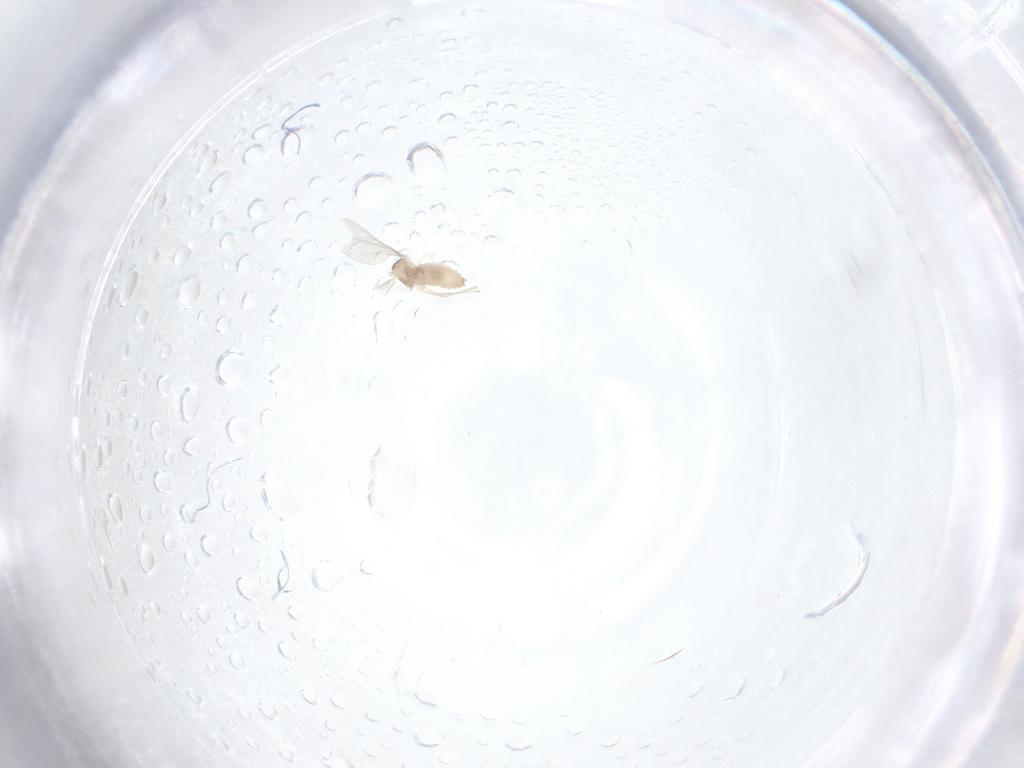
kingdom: Animalia
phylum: Arthropoda
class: Insecta
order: Diptera
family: Cecidomyiidae
